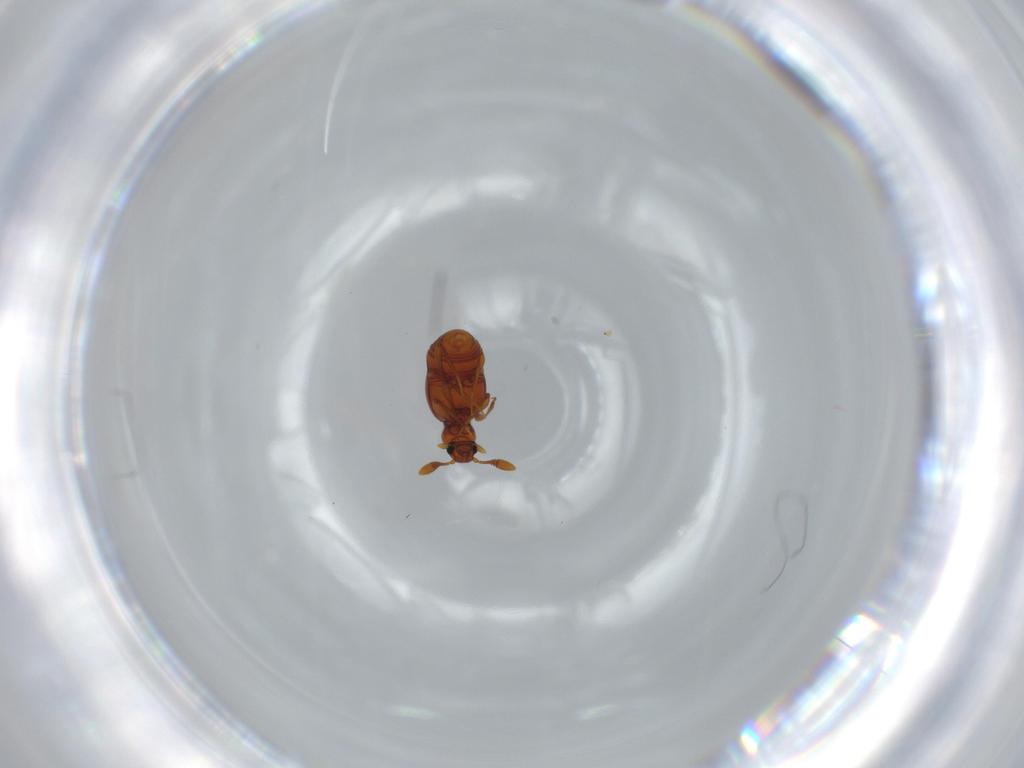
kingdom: Animalia
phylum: Arthropoda
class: Insecta
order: Coleoptera
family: Staphylinidae
